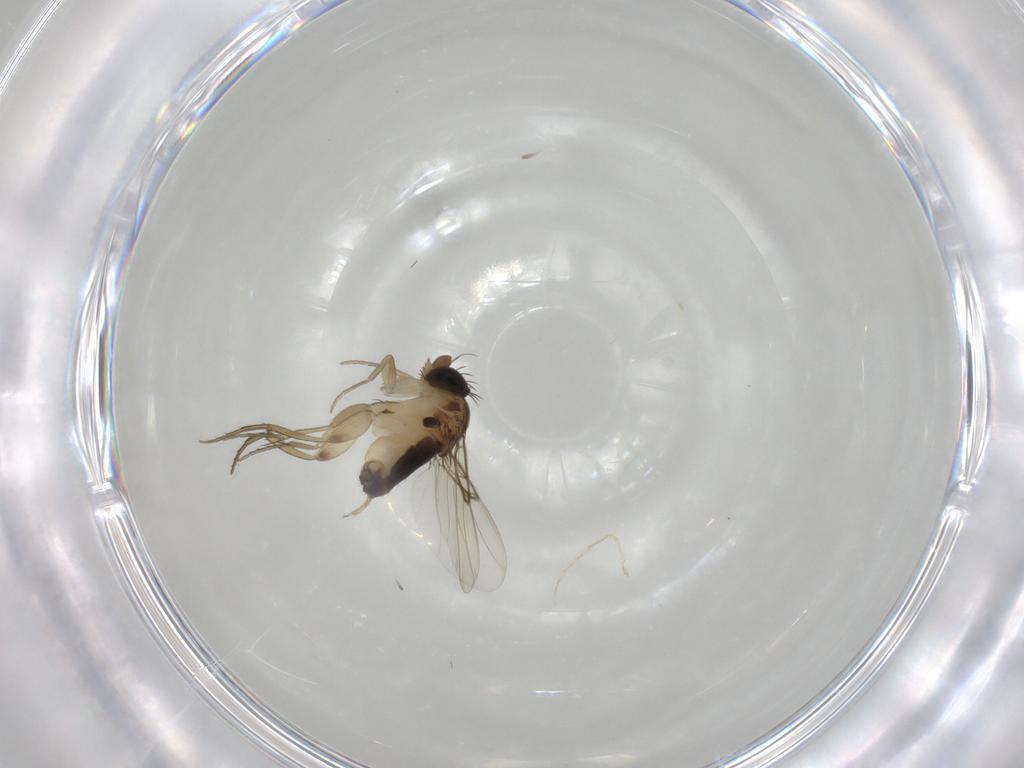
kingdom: Animalia
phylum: Arthropoda
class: Insecta
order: Diptera
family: Phoridae
